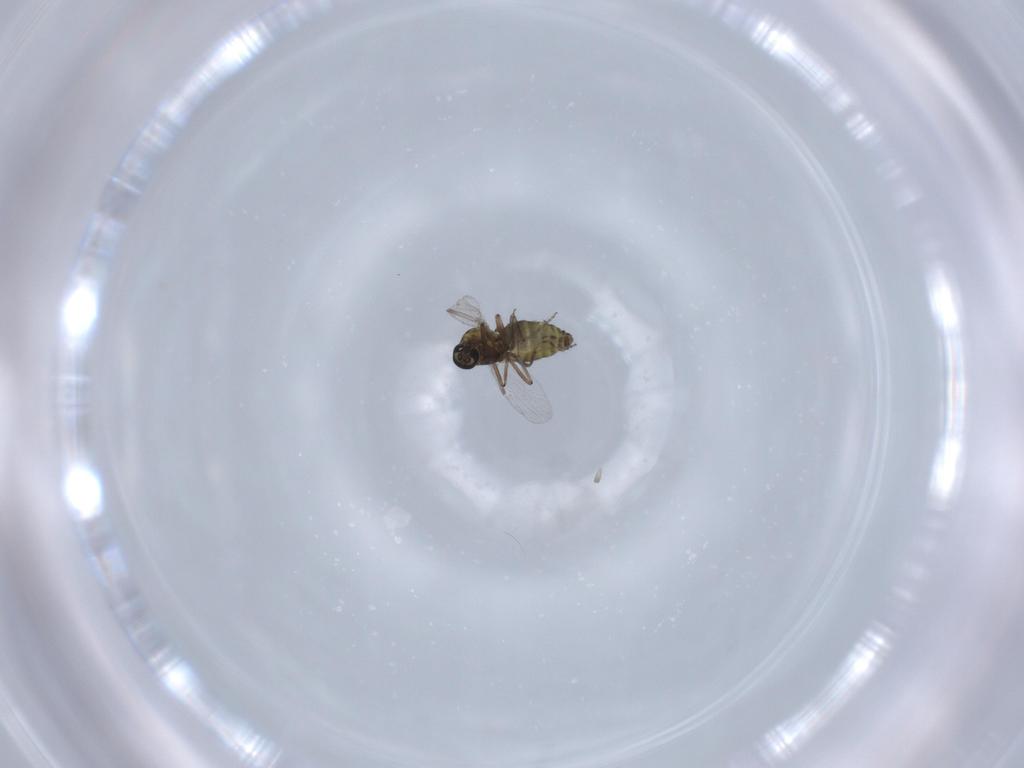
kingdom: Animalia
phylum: Arthropoda
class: Insecta
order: Diptera
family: Ceratopogonidae
